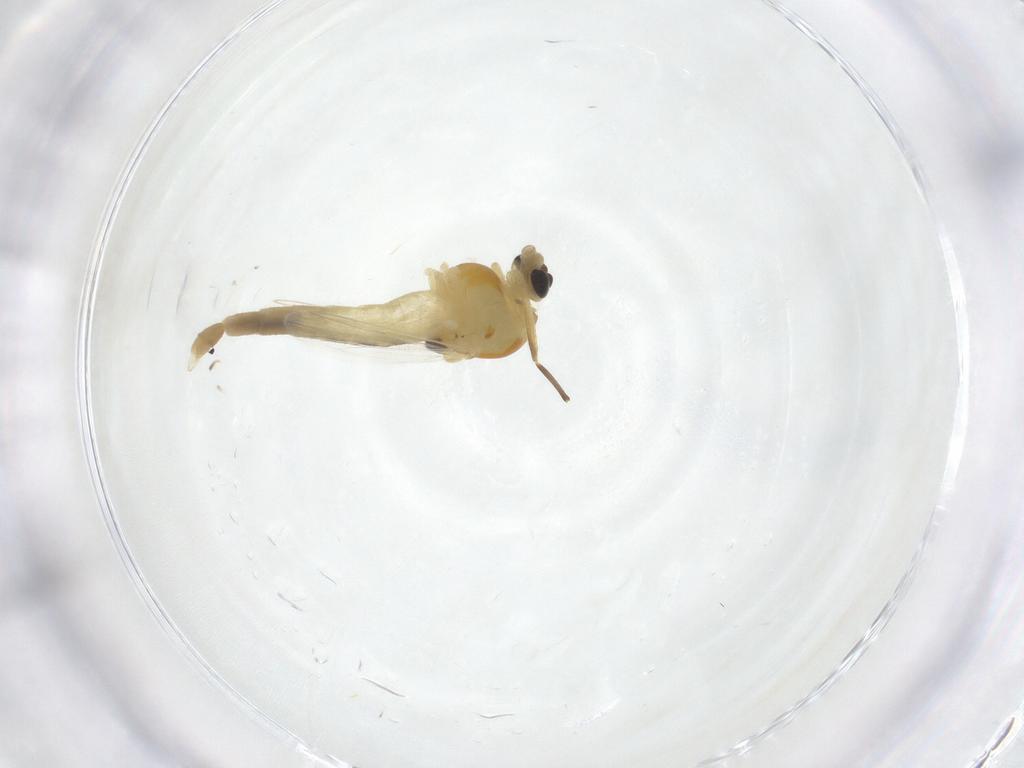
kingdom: Animalia
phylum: Arthropoda
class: Insecta
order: Diptera
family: Chironomidae
